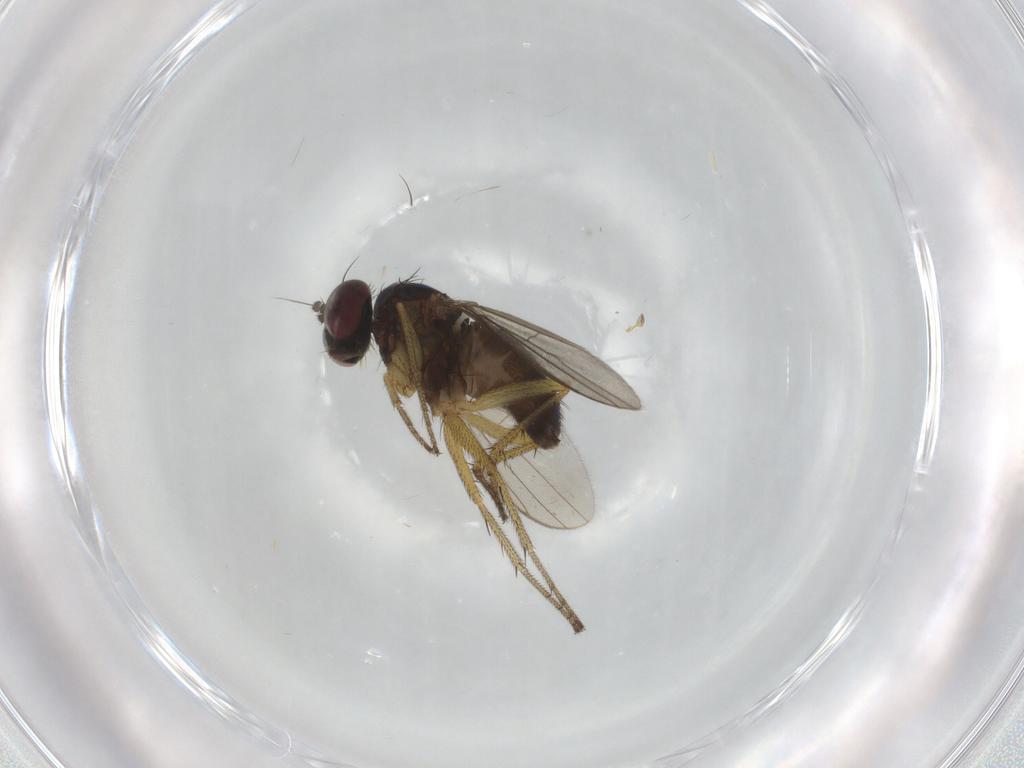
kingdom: Animalia
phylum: Arthropoda
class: Insecta
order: Diptera
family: Dolichopodidae
